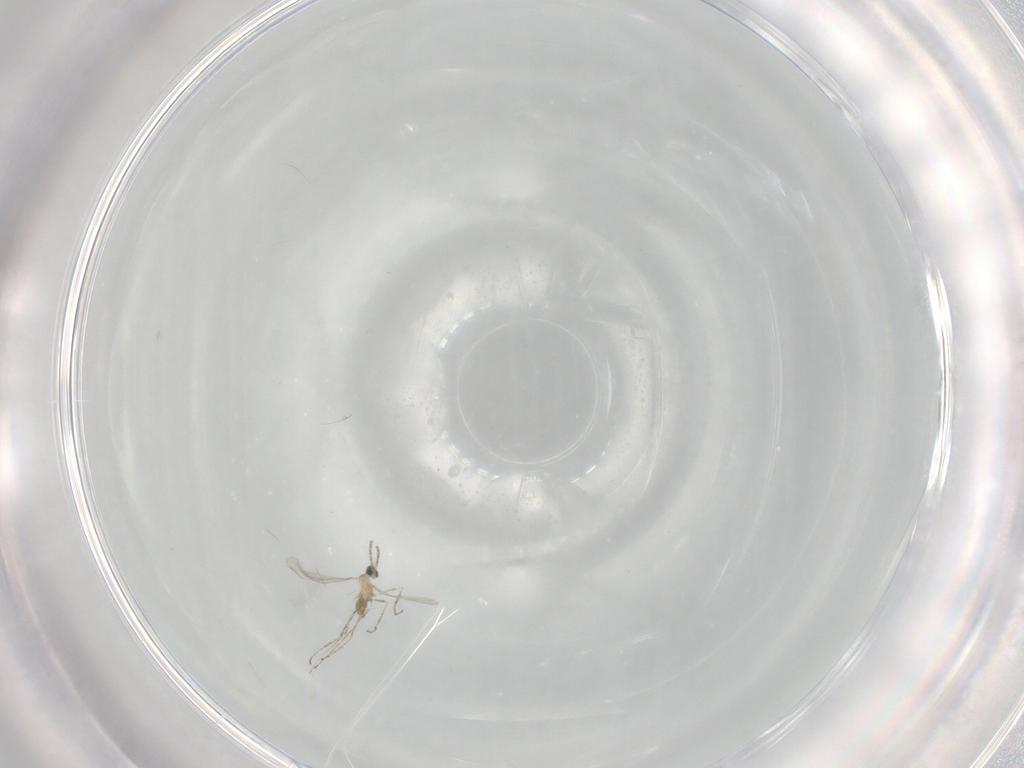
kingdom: Animalia
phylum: Arthropoda
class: Insecta
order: Diptera
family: Cecidomyiidae
